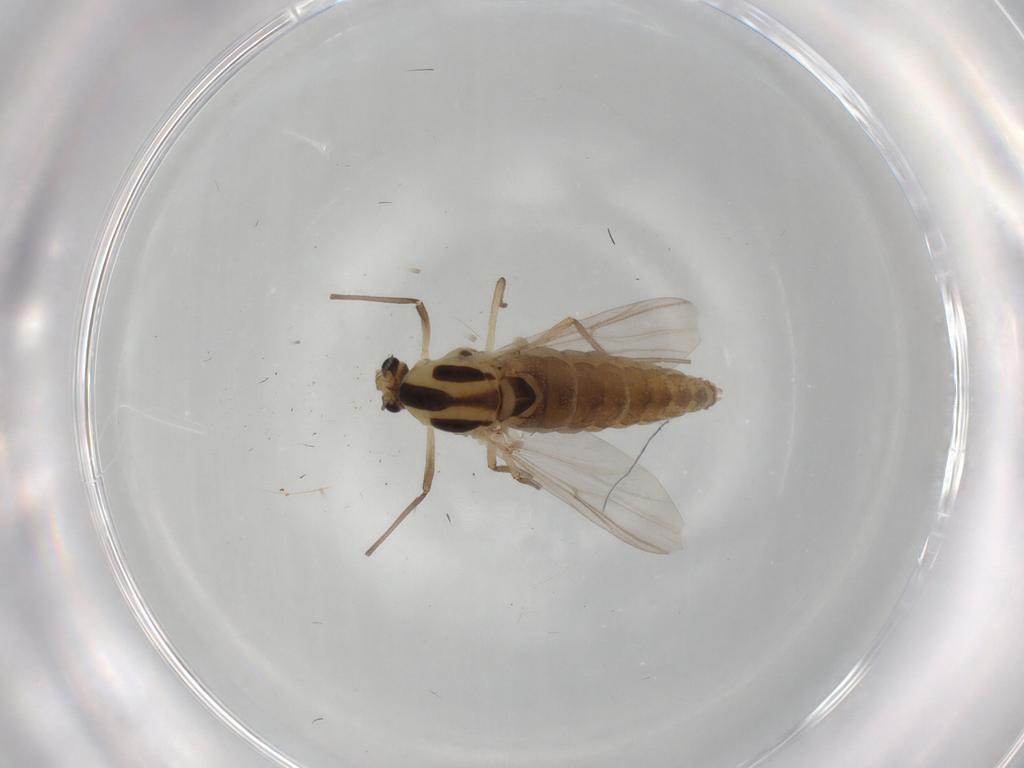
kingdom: Animalia
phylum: Arthropoda
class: Insecta
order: Diptera
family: Chironomidae
